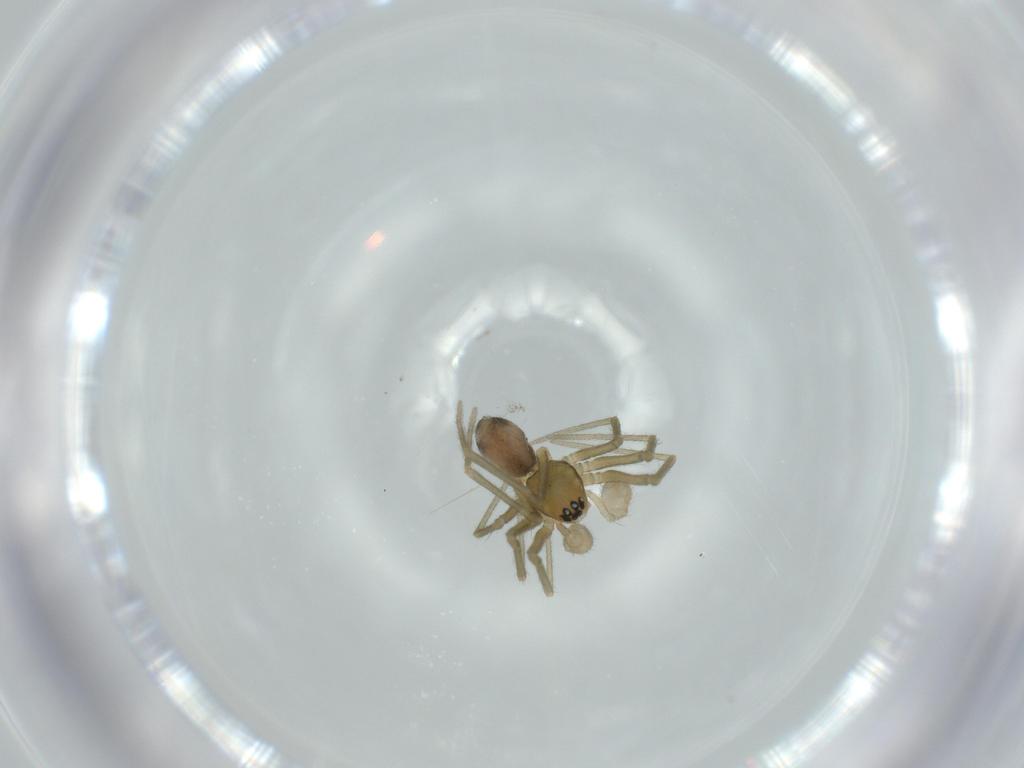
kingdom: Animalia
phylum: Arthropoda
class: Arachnida
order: Araneae
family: Linyphiidae
